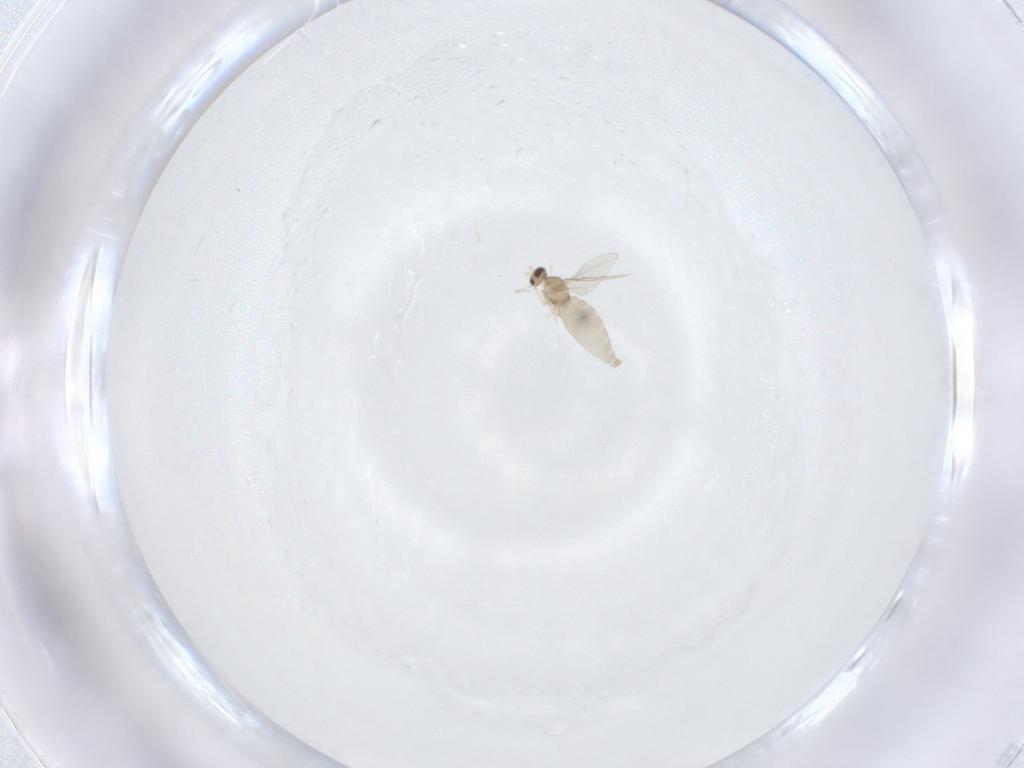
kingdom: Animalia
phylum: Arthropoda
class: Insecta
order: Diptera
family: Cecidomyiidae
